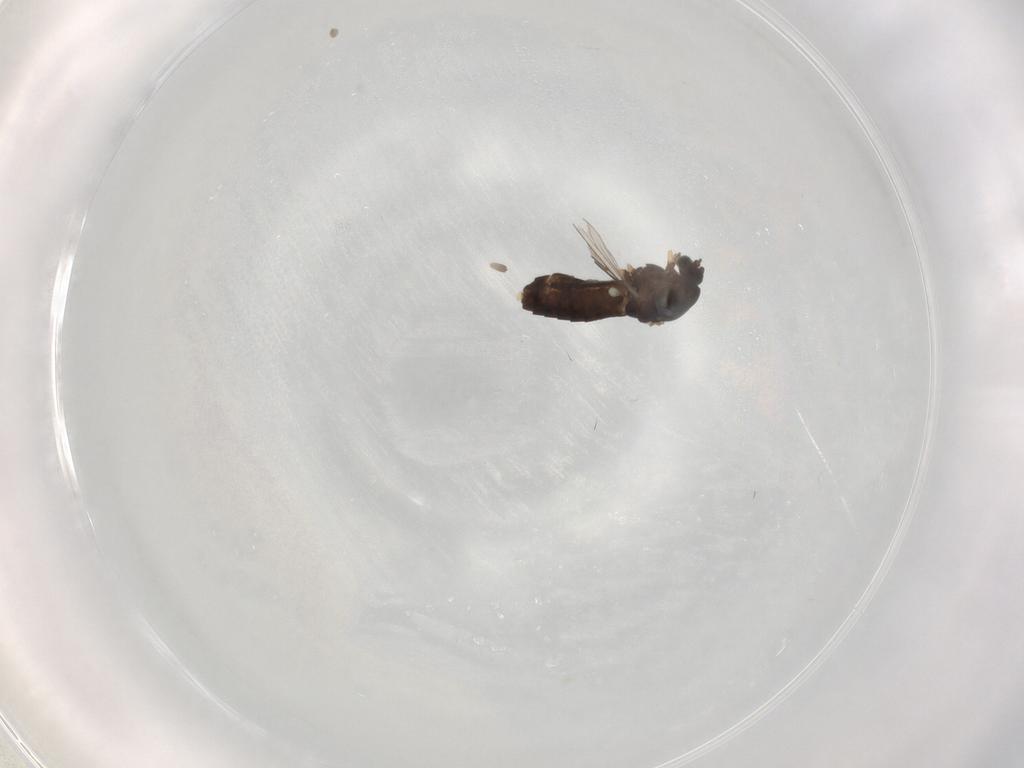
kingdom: Animalia
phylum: Arthropoda
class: Insecta
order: Diptera
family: Chironomidae
